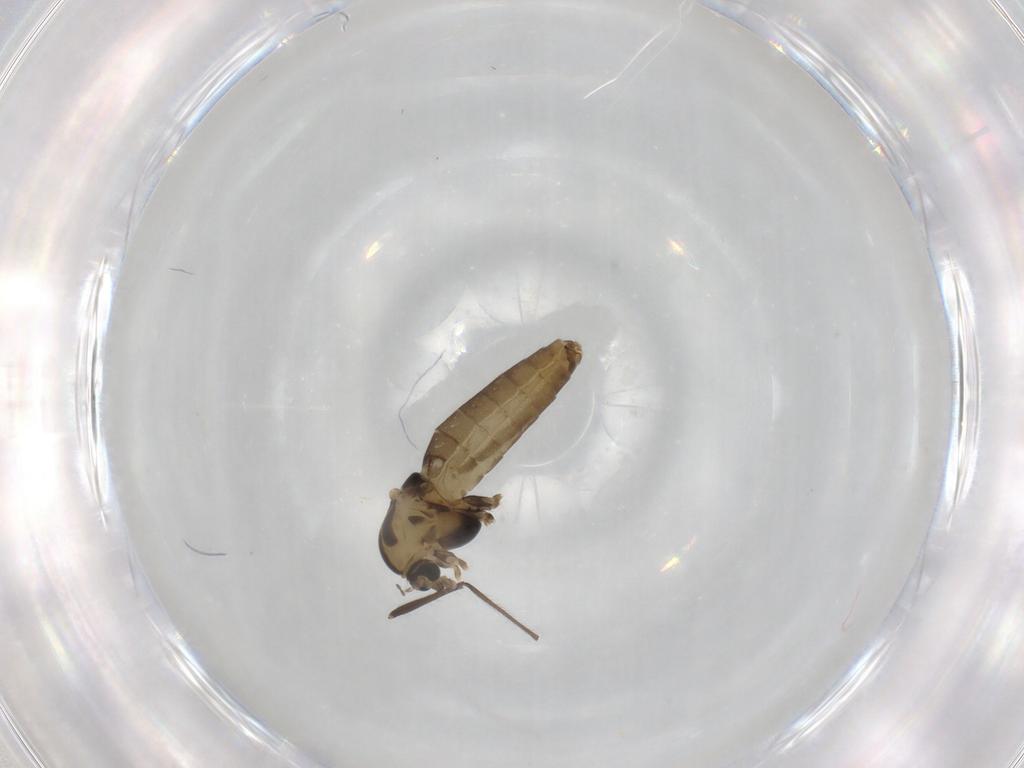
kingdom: Animalia
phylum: Arthropoda
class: Insecta
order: Diptera
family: Chironomidae
